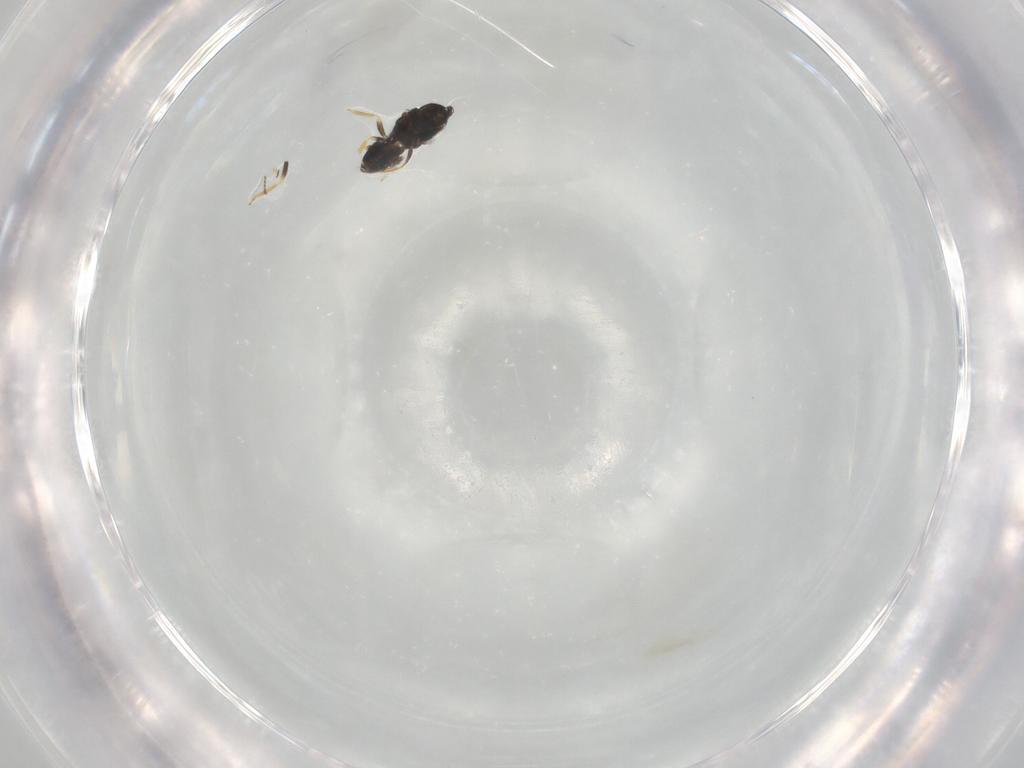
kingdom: Animalia
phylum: Arthropoda
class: Insecta
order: Hymenoptera
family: Eulophidae
